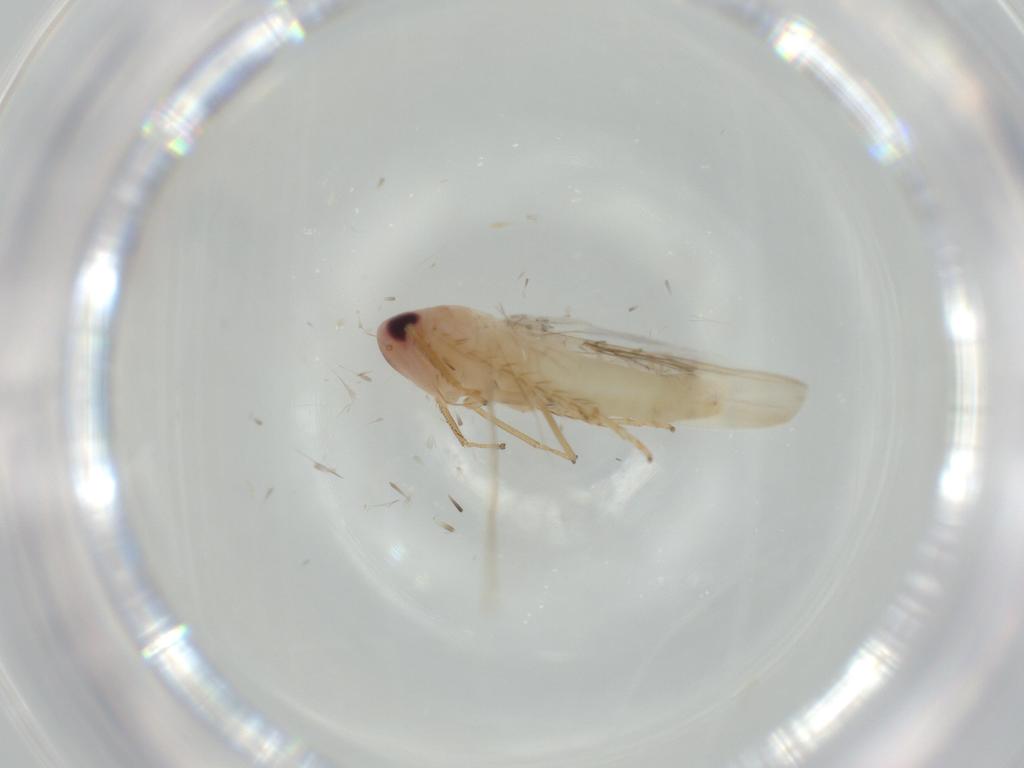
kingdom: Animalia
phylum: Arthropoda
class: Insecta
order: Hemiptera
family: Cicadellidae
